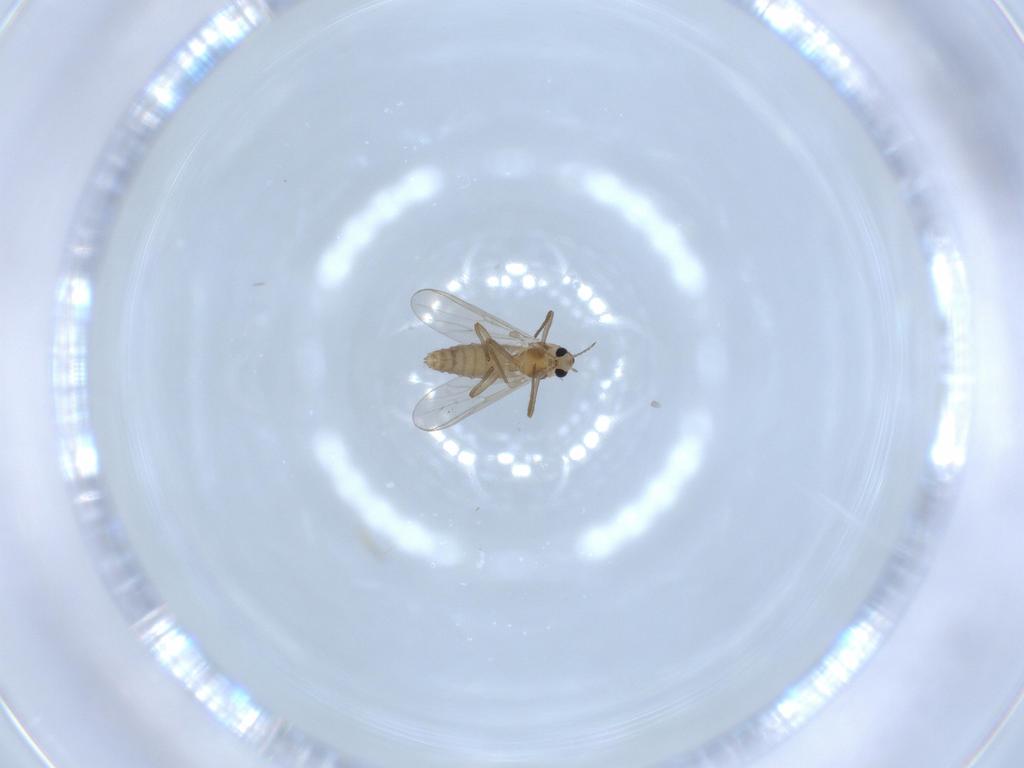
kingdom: Animalia
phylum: Arthropoda
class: Insecta
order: Diptera
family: Chironomidae
